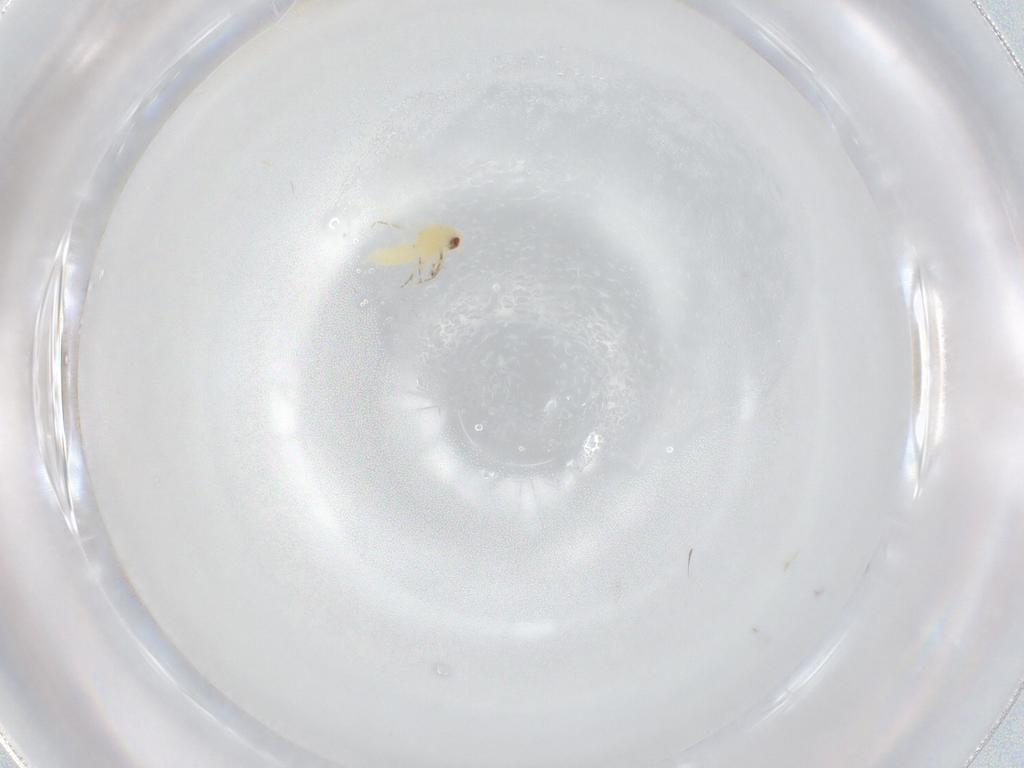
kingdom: Animalia
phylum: Arthropoda
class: Insecta
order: Hemiptera
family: Aleyrodidae
